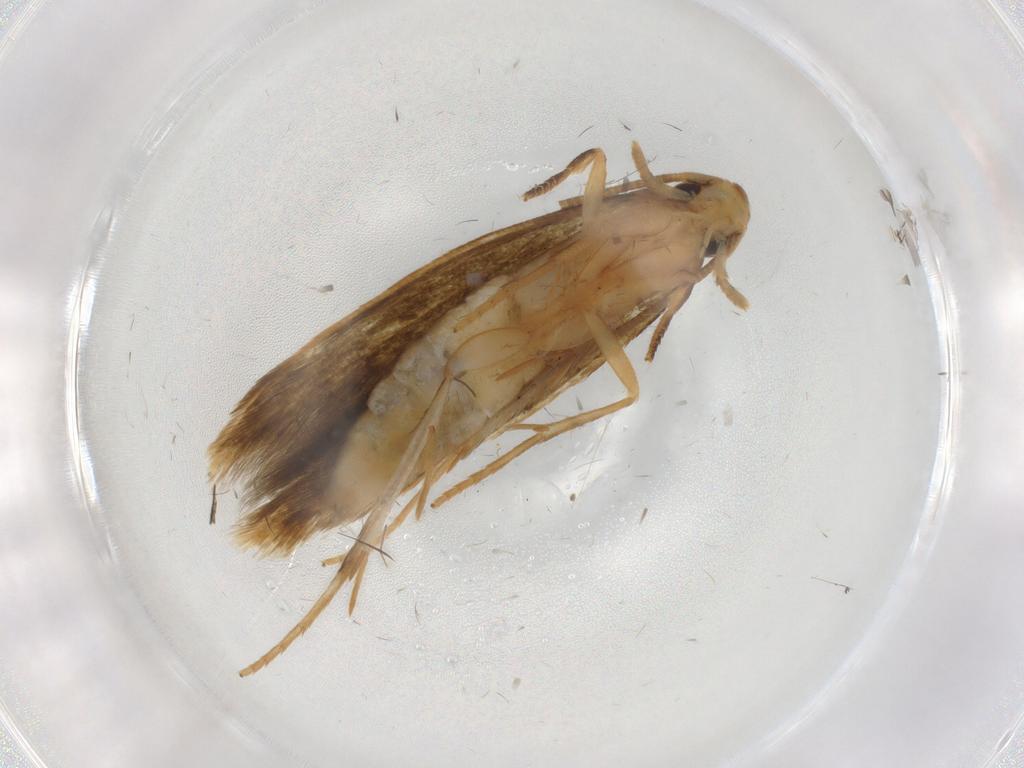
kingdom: Animalia
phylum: Arthropoda
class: Insecta
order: Lepidoptera
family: Tineidae
